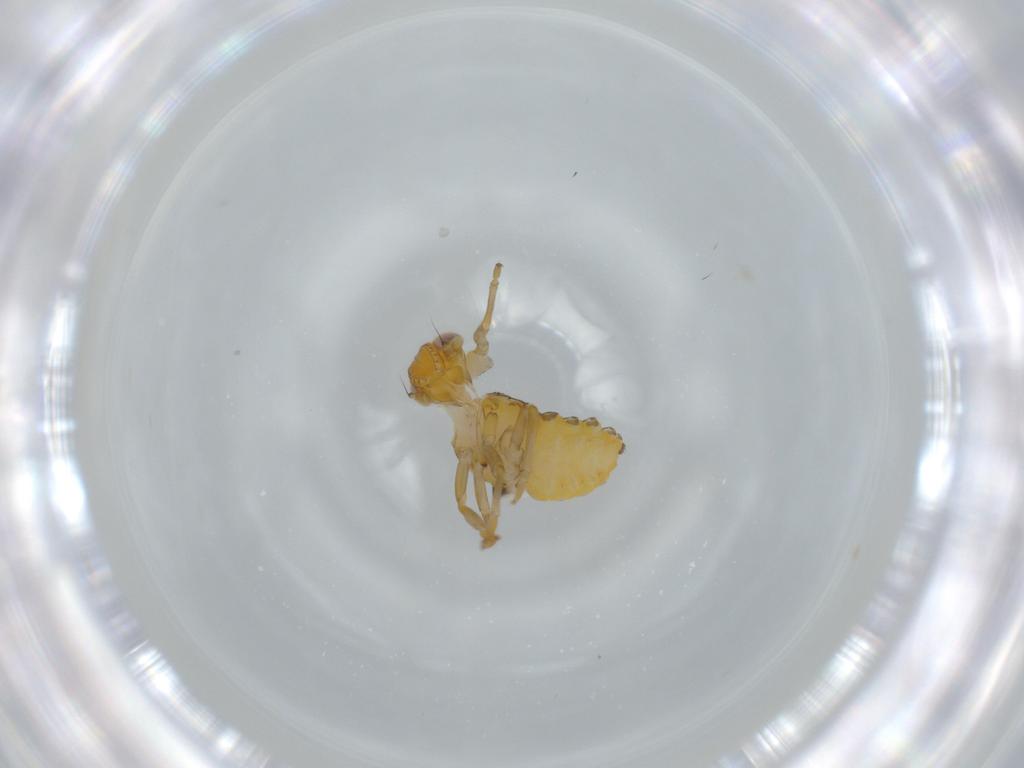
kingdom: Animalia
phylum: Arthropoda
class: Insecta
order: Hemiptera
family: Issidae
